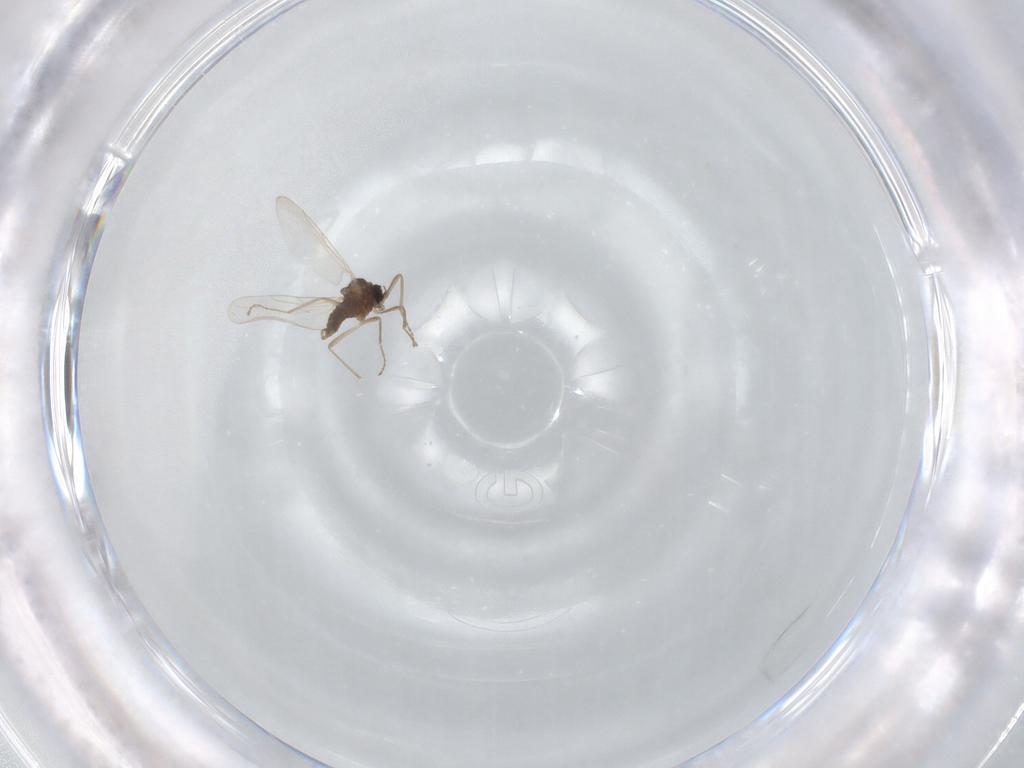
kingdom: Animalia
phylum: Arthropoda
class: Insecta
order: Diptera
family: Cecidomyiidae
